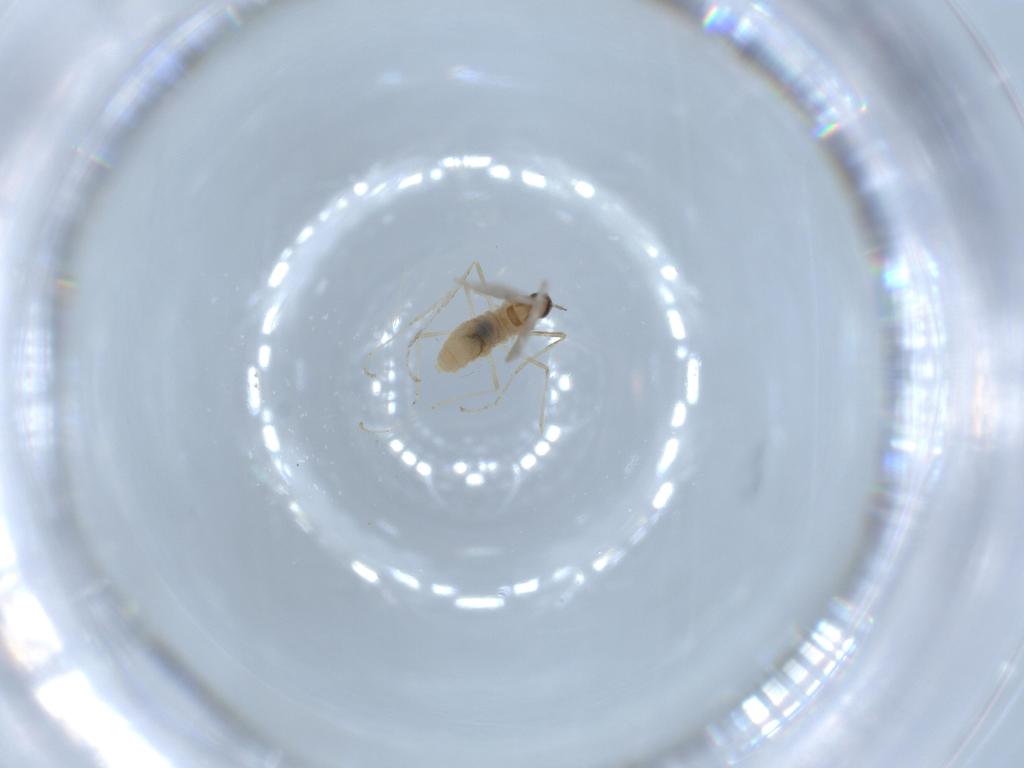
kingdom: Animalia
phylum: Arthropoda
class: Insecta
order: Diptera
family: Cecidomyiidae
